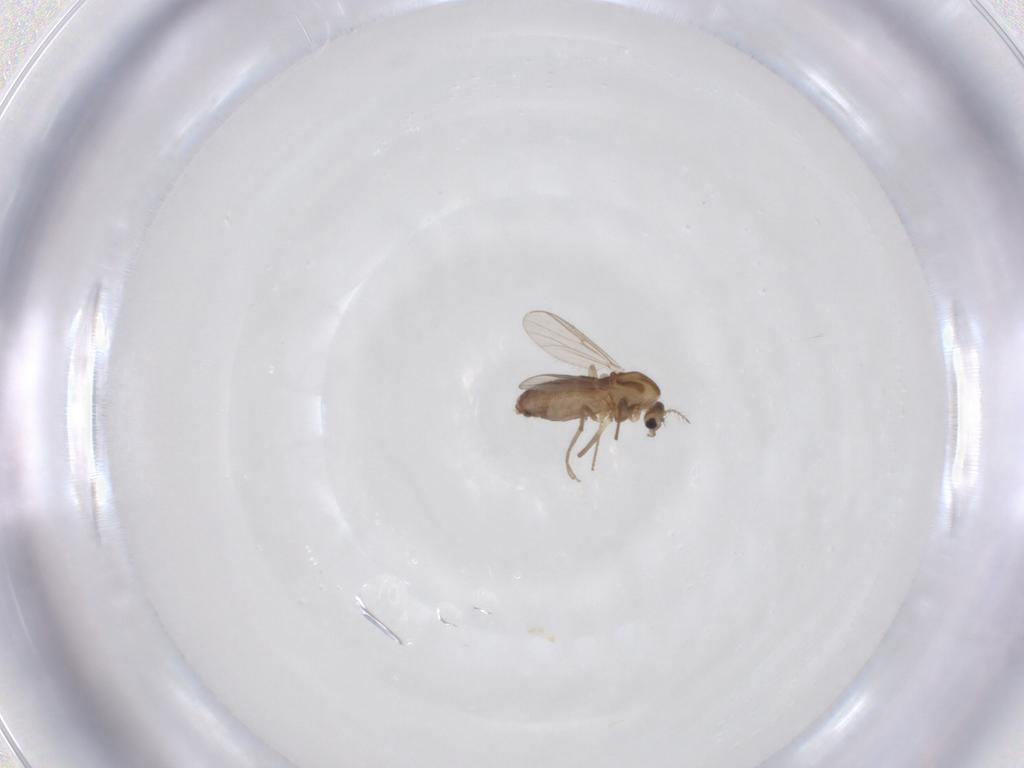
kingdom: Animalia
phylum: Arthropoda
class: Insecta
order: Diptera
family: Chironomidae
